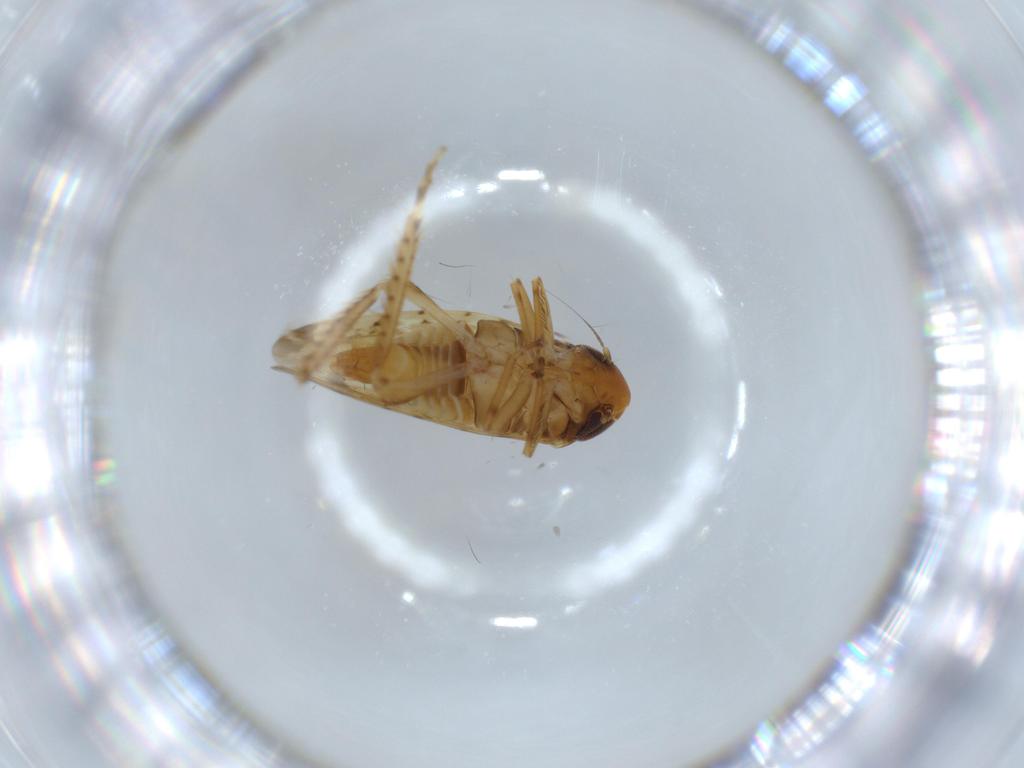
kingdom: Animalia
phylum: Arthropoda
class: Insecta
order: Hemiptera
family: Cicadellidae
